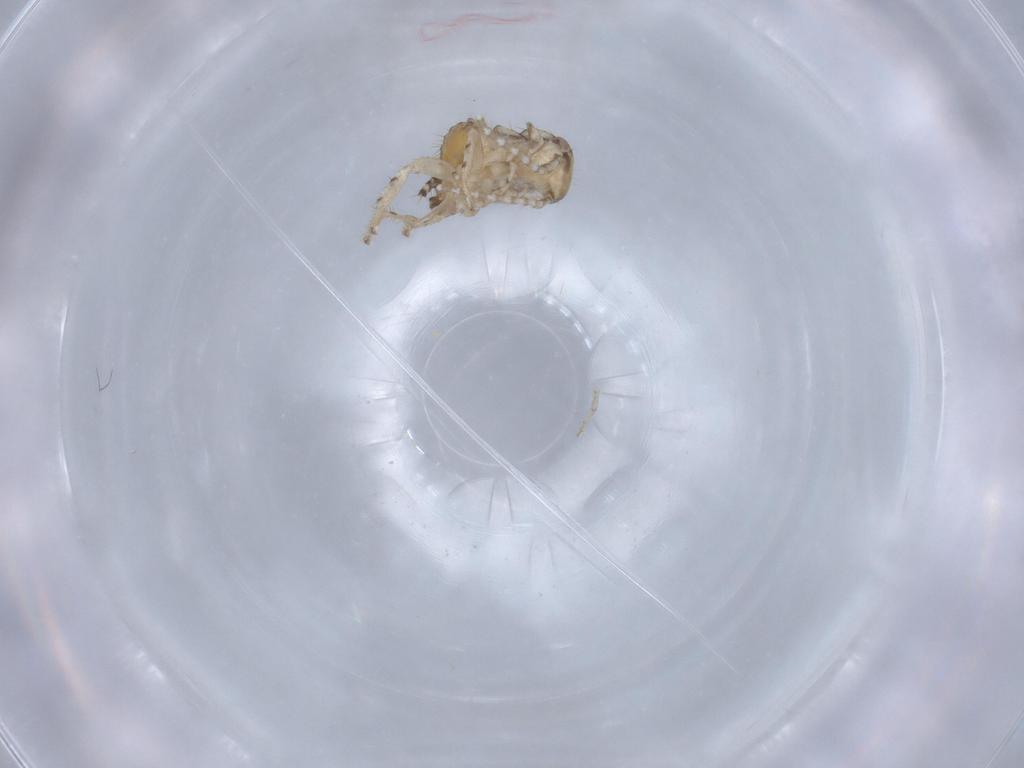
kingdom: Animalia
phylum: Arthropoda
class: Insecta
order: Blattodea
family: Ectobiidae
